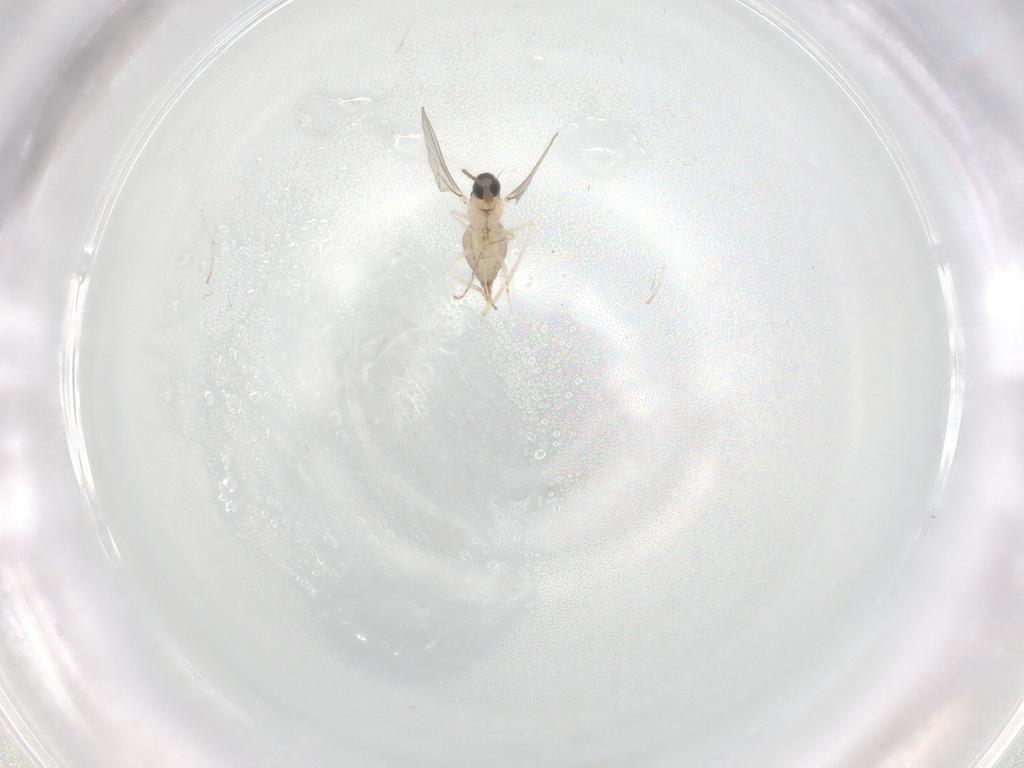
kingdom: Animalia
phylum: Arthropoda
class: Insecta
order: Diptera
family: Cecidomyiidae
